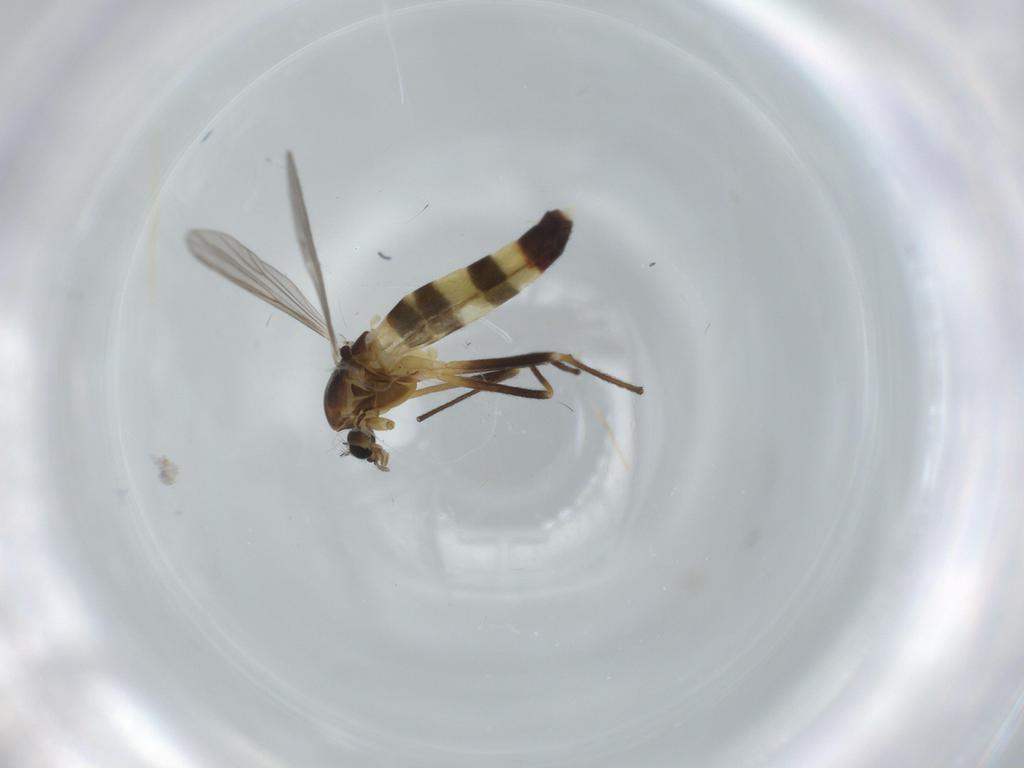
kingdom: Animalia
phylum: Arthropoda
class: Insecta
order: Diptera
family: Chironomidae
